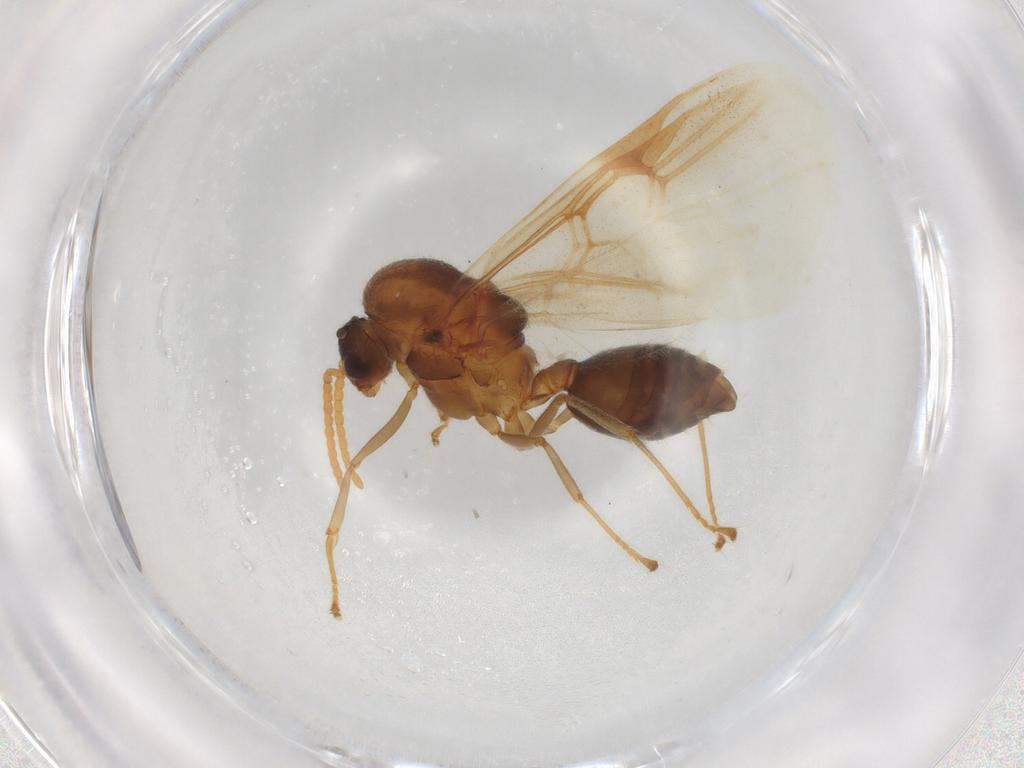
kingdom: Animalia
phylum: Arthropoda
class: Insecta
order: Hymenoptera
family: Formicidae
